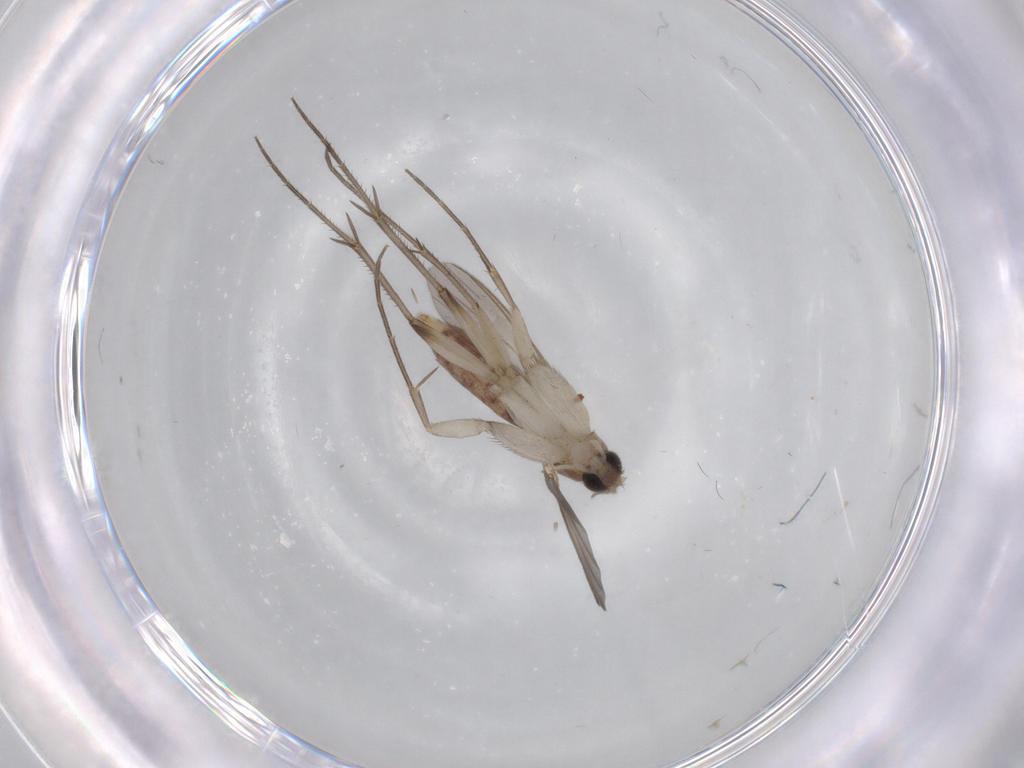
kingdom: Animalia
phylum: Arthropoda
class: Insecta
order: Diptera
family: Mycetophilidae
